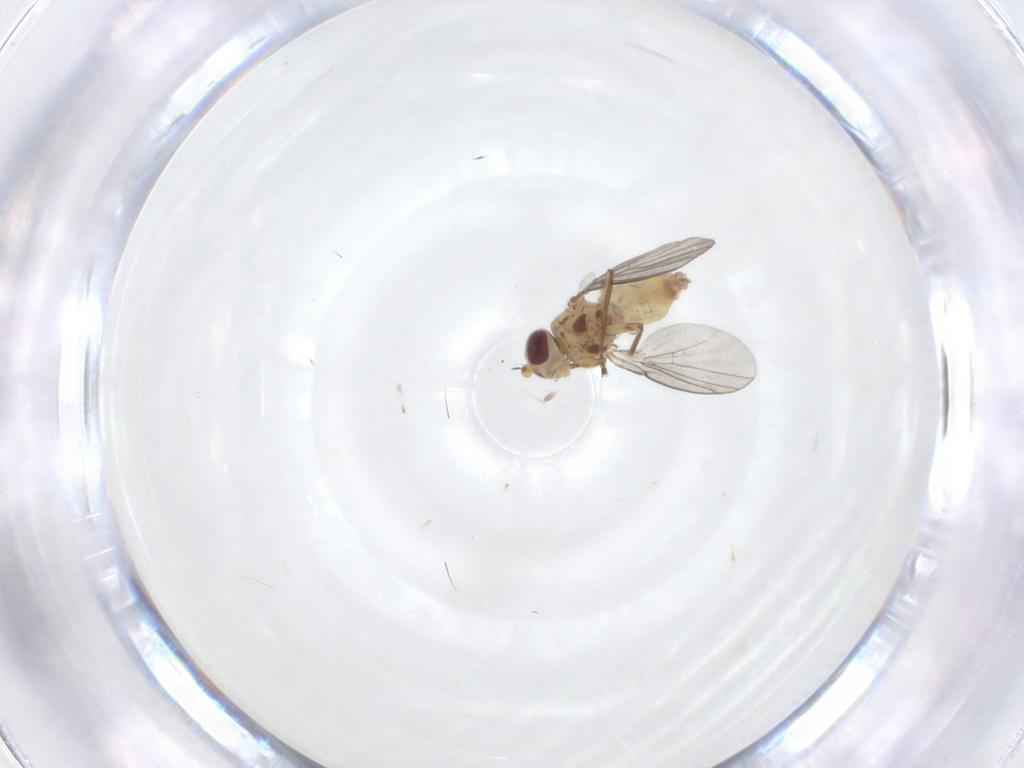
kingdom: Animalia
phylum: Arthropoda
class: Insecta
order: Diptera
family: Agromyzidae
